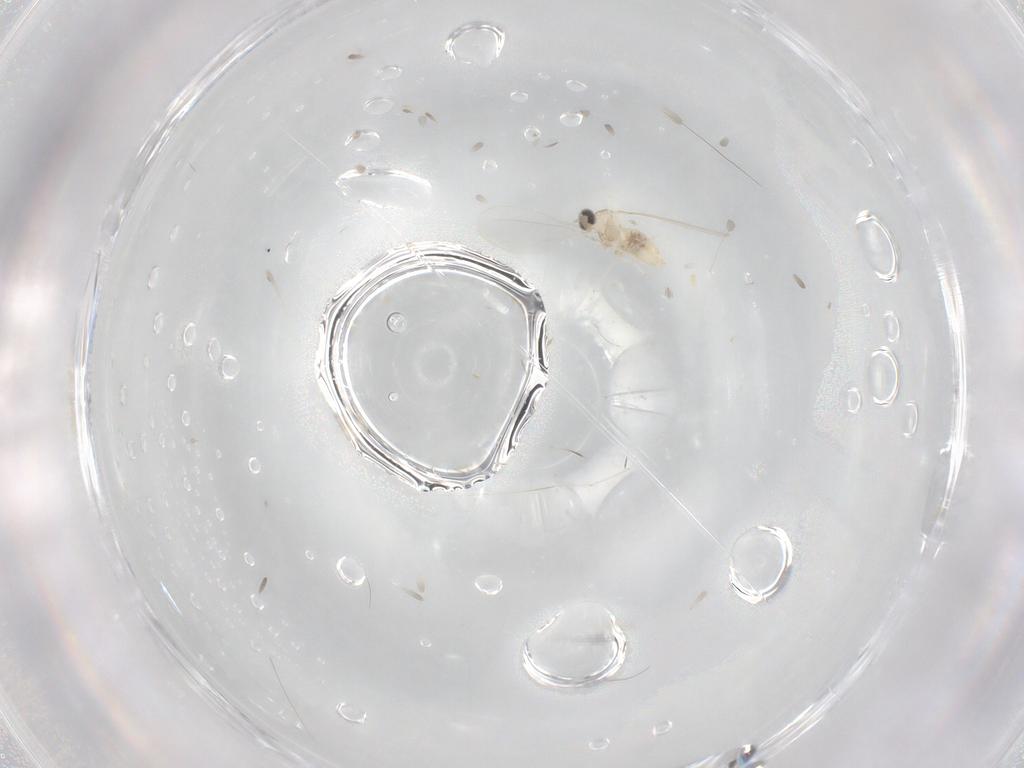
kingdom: Animalia
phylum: Arthropoda
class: Insecta
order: Diptera
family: Cecidomyiidae
